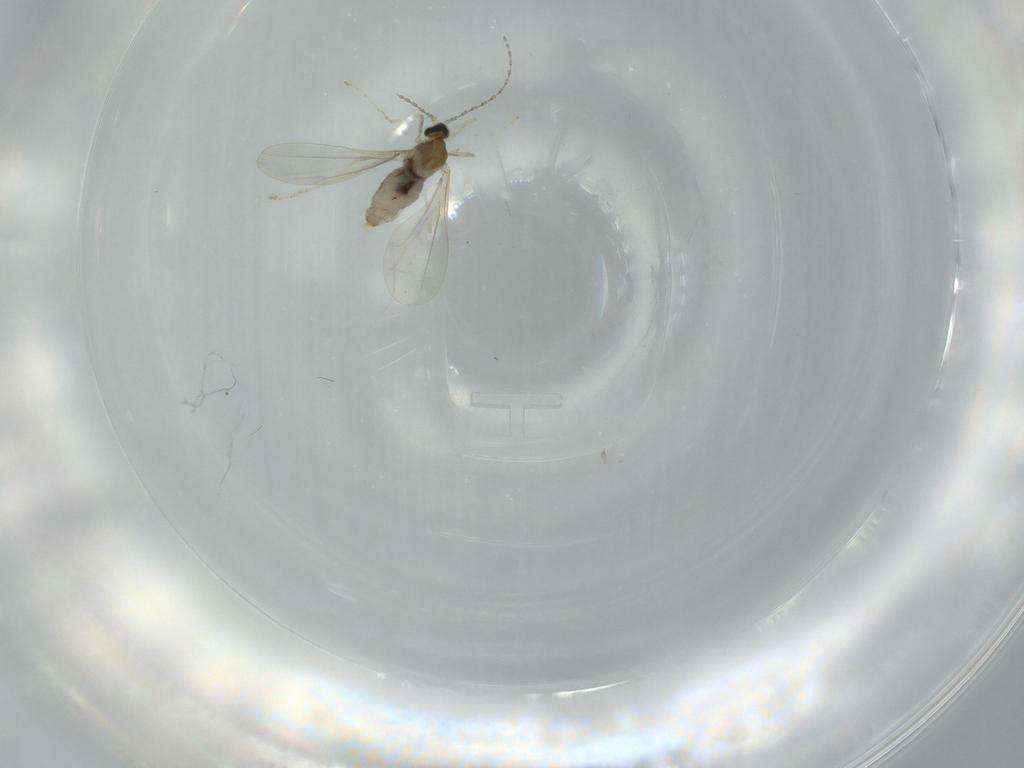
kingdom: Animalia
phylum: Arthropoda
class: Insecta
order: Diptera
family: Cecidomyiidae
